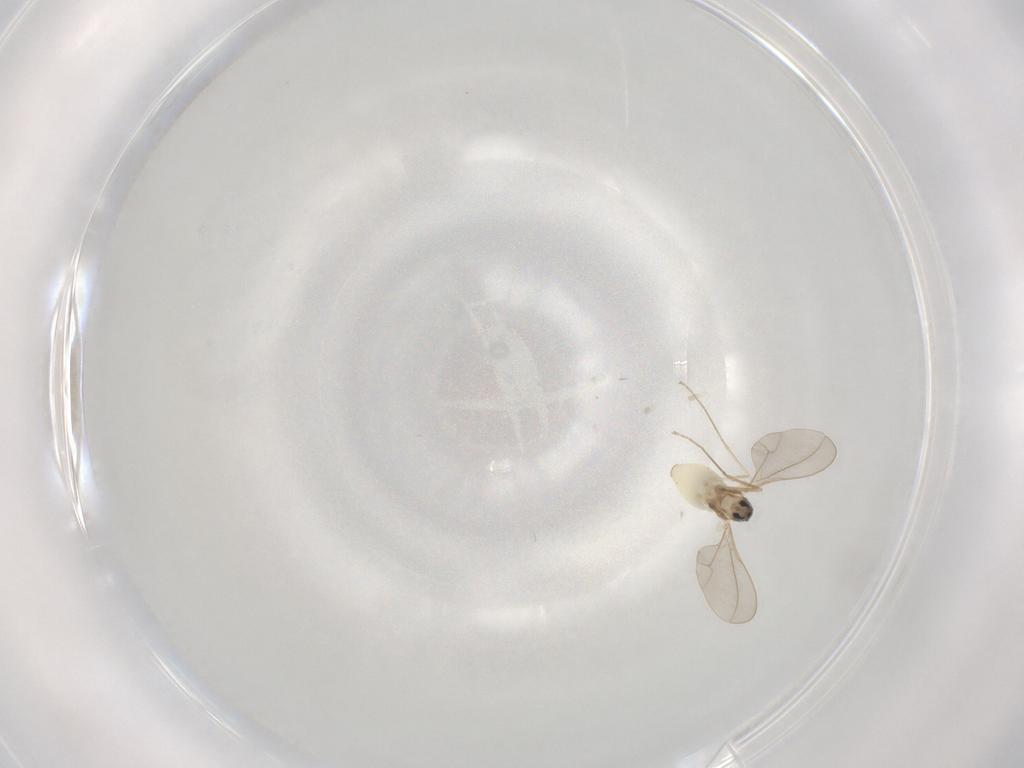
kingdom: Animalia
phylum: Arthropoda
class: Insecta
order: Diptera
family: Cecidomyiidae
